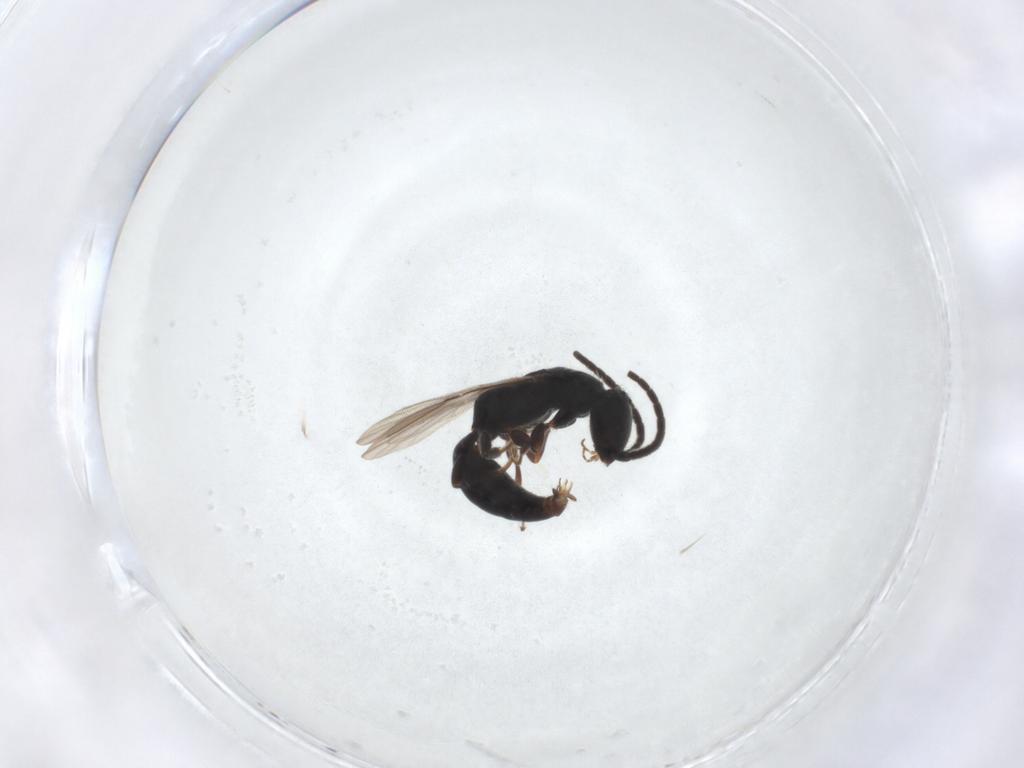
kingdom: Animalia
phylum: Arthropoda
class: Insecta
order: Hymenoptera
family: Bethylidae
